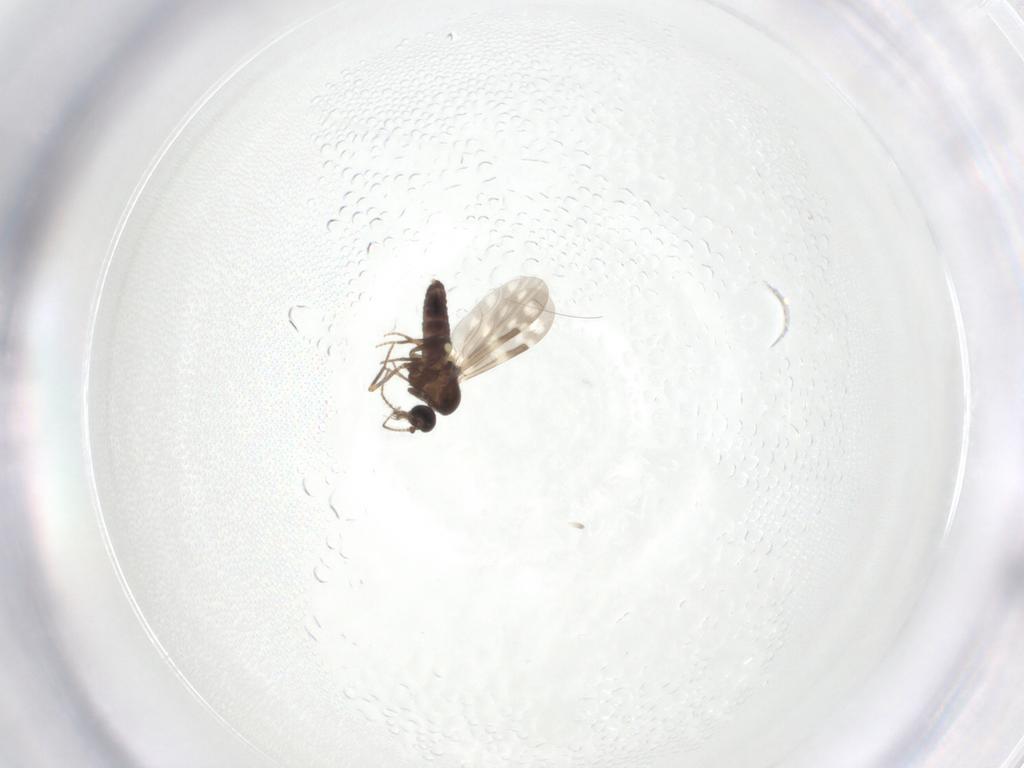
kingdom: Animalia
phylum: Arthropoda
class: Insecta
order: Diptera
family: Ceratopogonidae
